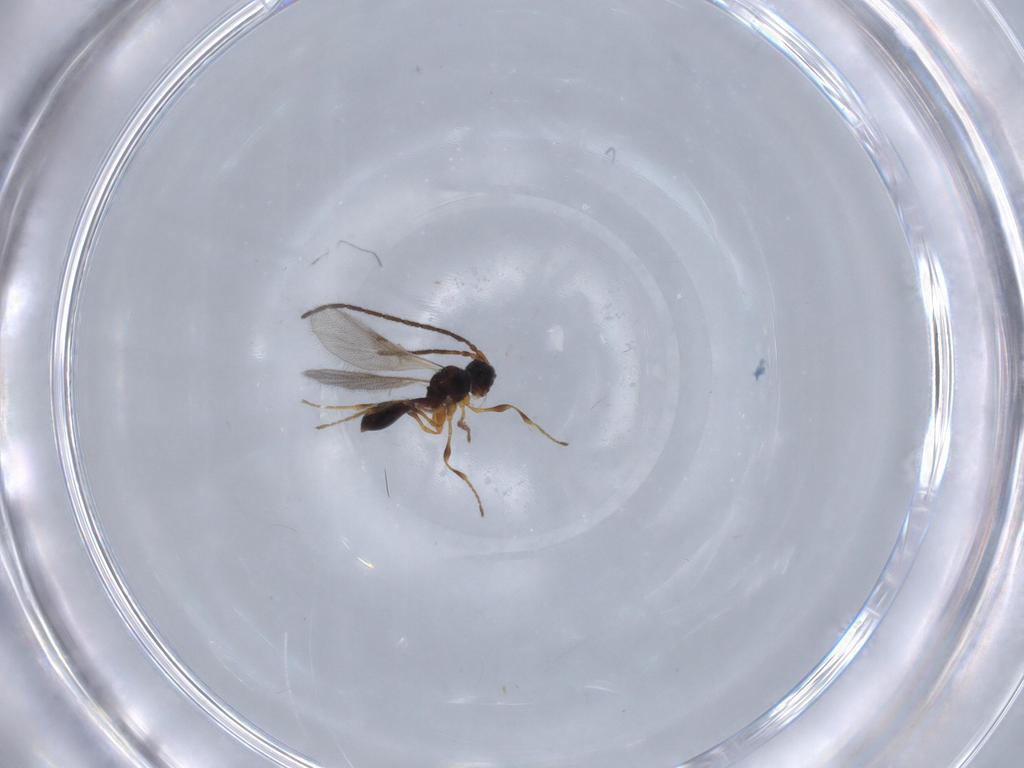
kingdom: Animalia
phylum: Arthropoda
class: Insecta
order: Hymenoptera
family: Diapriidae
